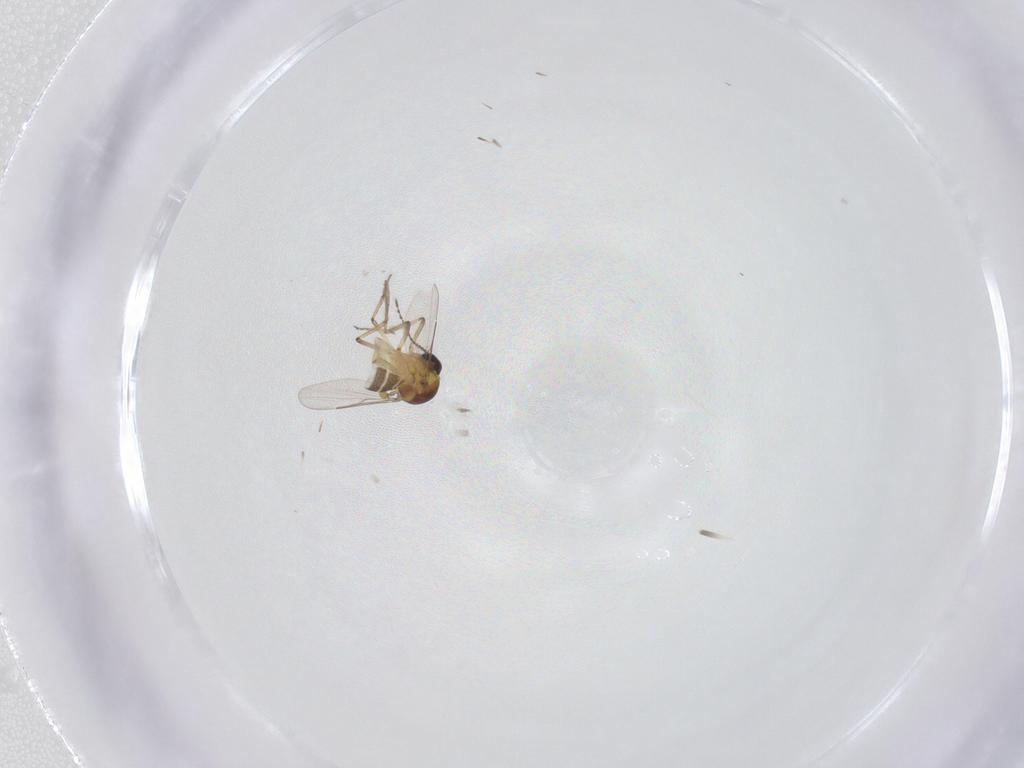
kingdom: Animalia
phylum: Arthropoda
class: Insecta
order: Diptera
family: Ceratopogonidae
